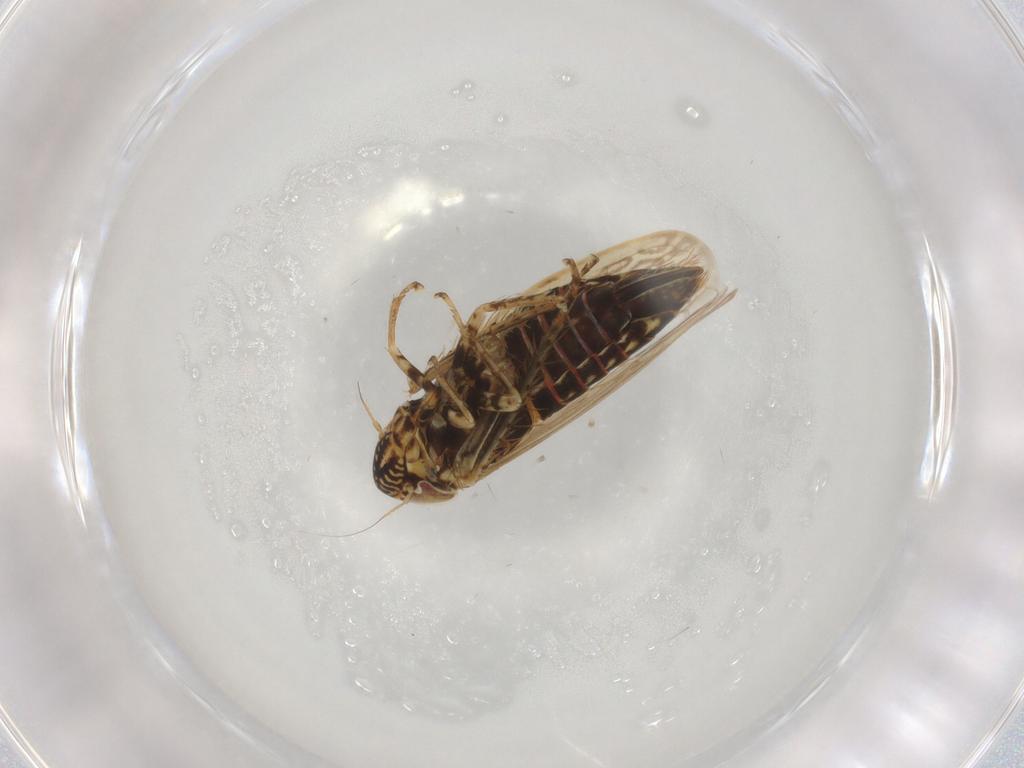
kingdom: Animalia
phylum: Arthropoda
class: Insecta
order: Hemiptera
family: Cicadellidae
